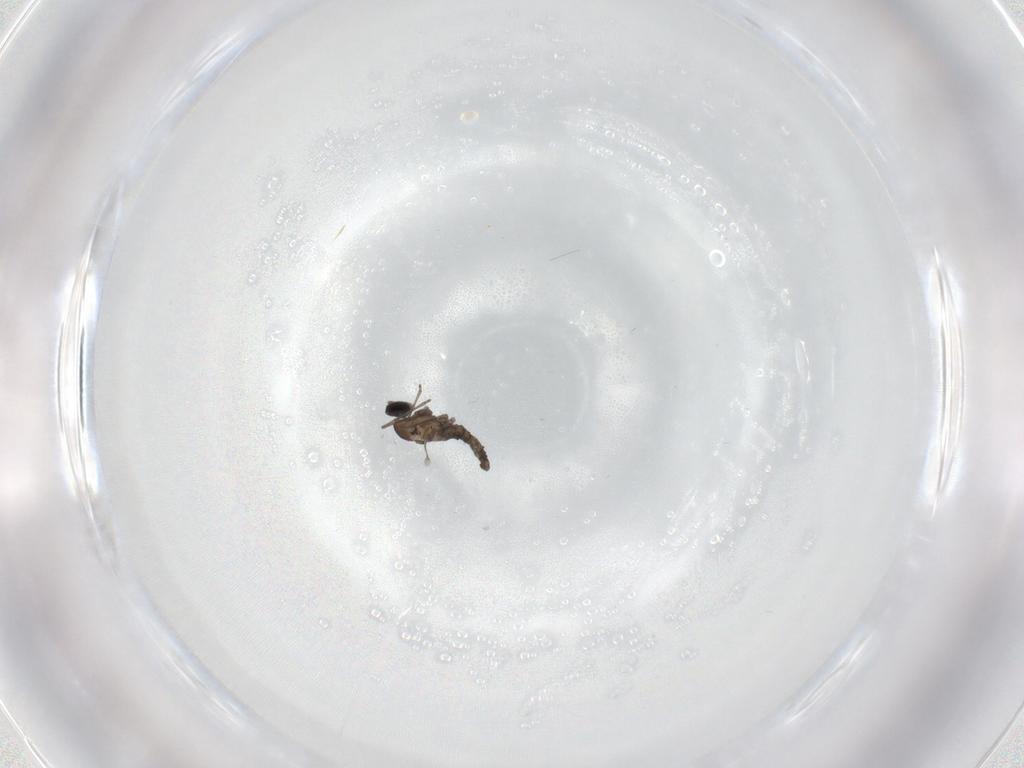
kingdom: Animalia
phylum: Arthropoda
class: Insecta
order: Diptera
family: Cecidomyiidae
